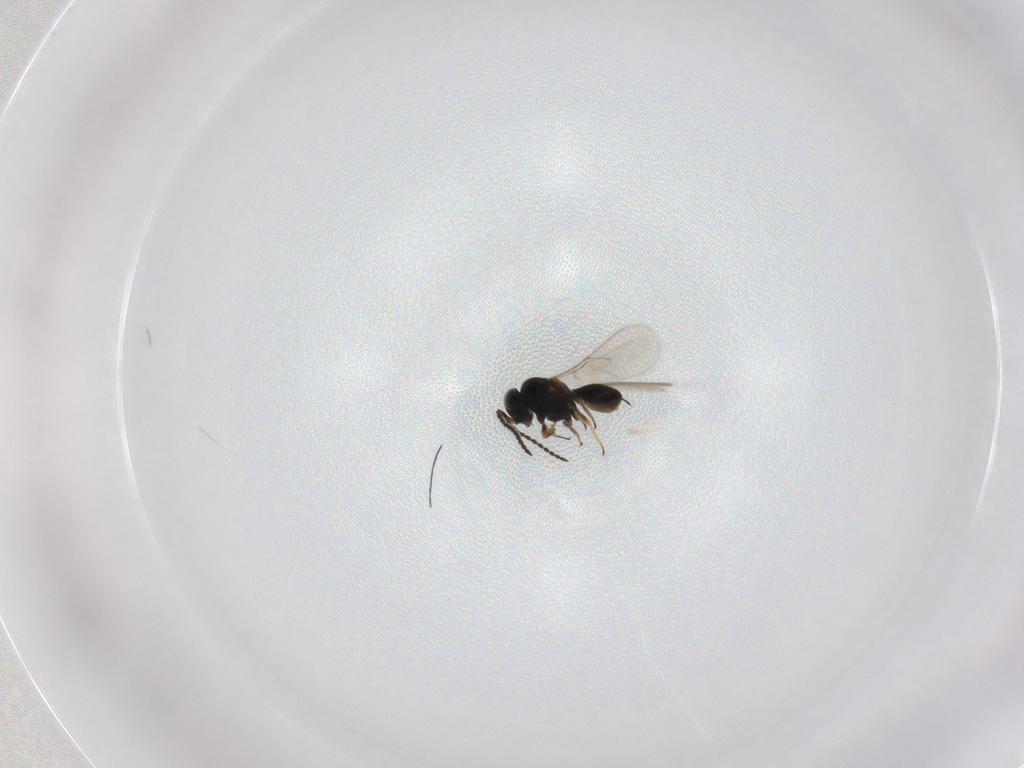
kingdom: Animalia
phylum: Arthropoda
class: Insecta
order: Hymenoptera
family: Scelionidae
